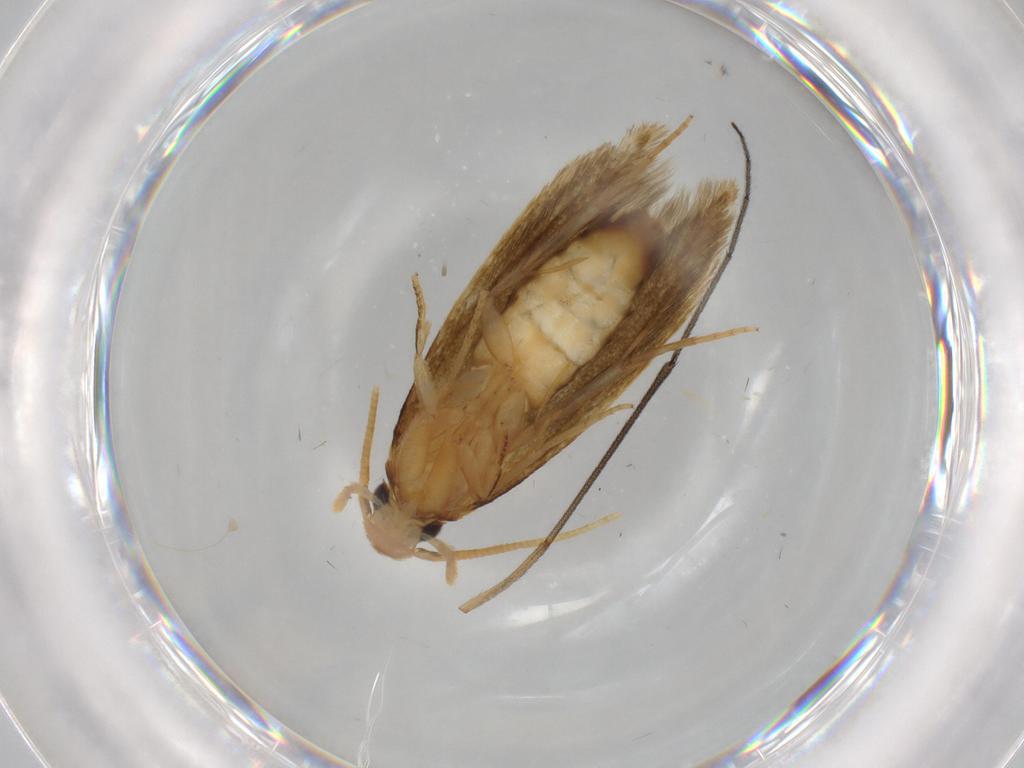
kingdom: Animalia
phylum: Arthropoda
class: Insecta
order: Lepidoptera
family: Tineidae
